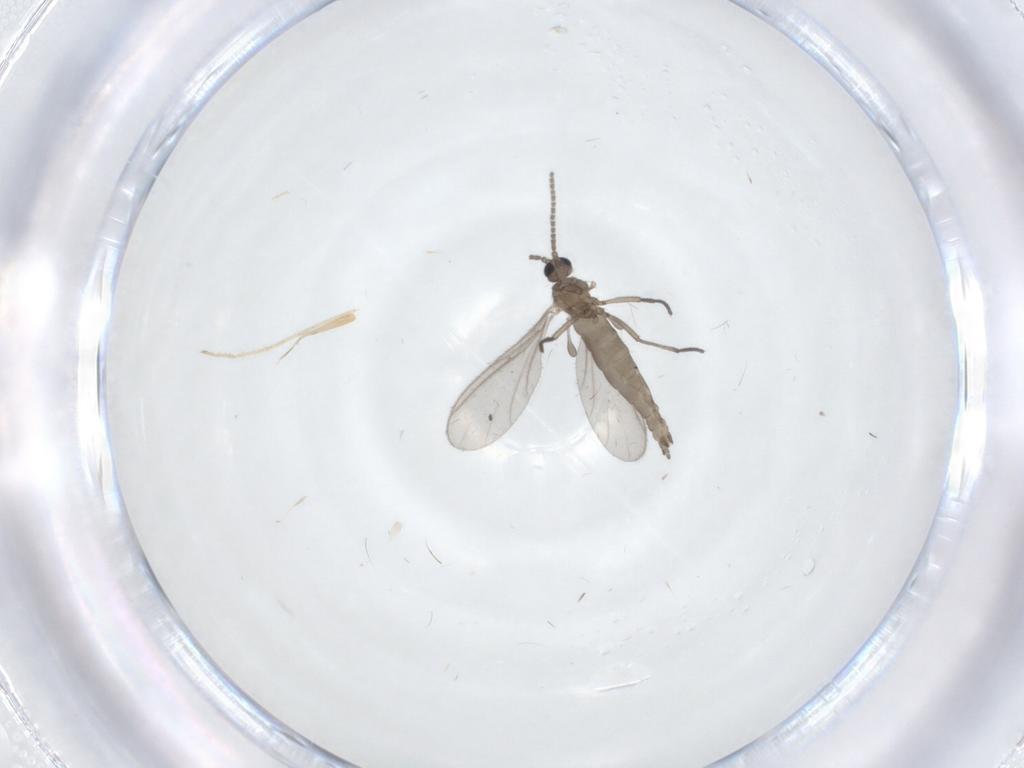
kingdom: Animalia
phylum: Arthropoda
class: Insecta
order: Diptera
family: Sciaridae
